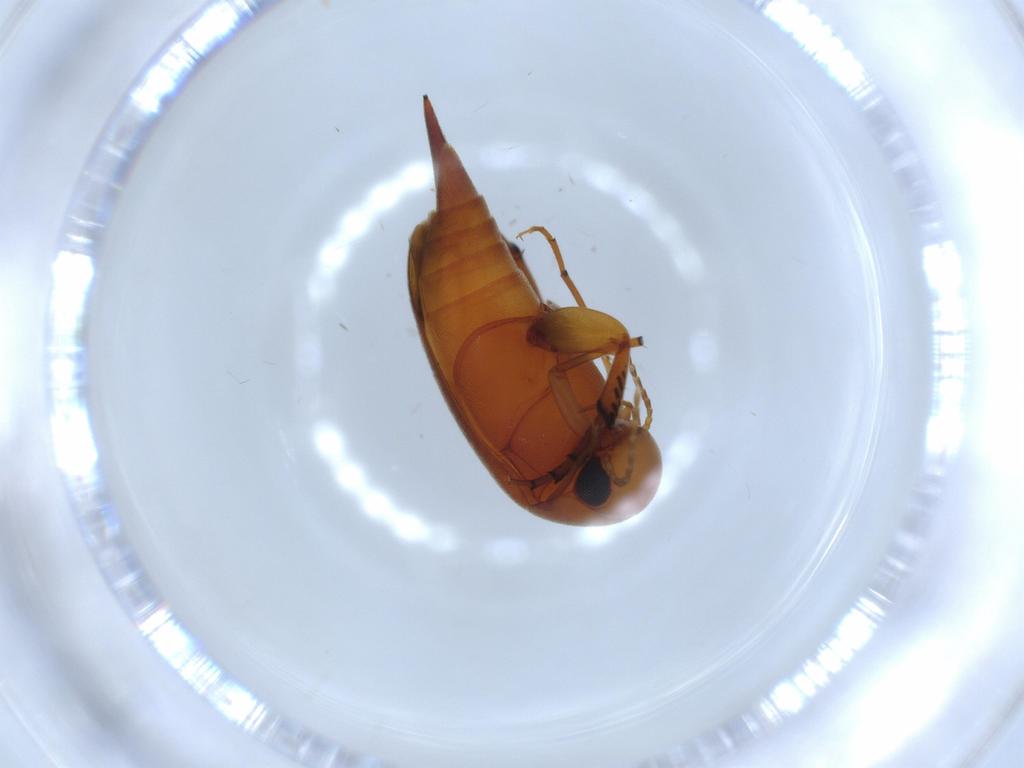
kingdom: Animalia
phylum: Arthropoda
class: Insecta
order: Coleoptera
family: Mordellidae
